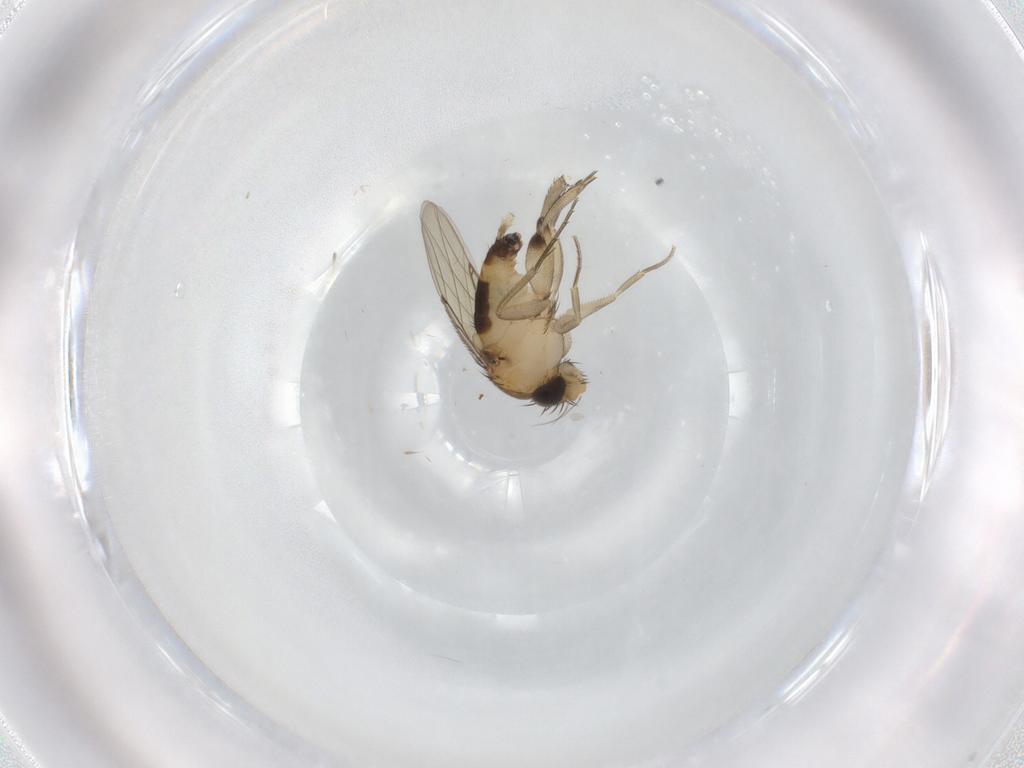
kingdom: Animalia
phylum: Arthropoda
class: Insecta
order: Diptera
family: Phoridae
